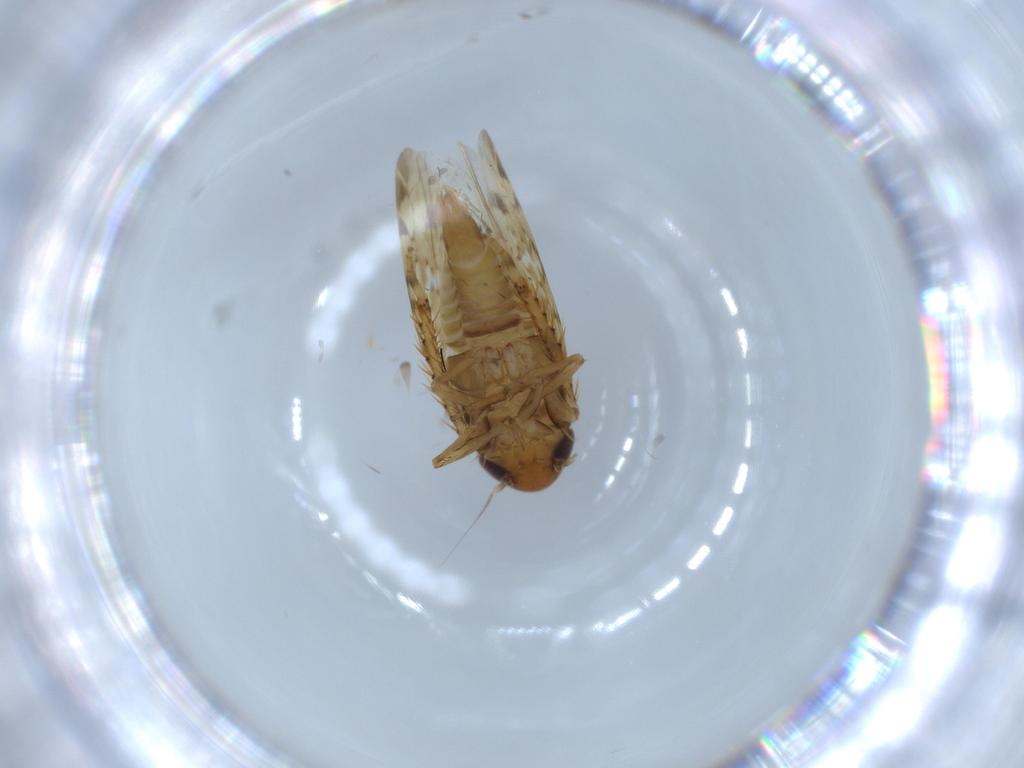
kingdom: Animalia
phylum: Arthropoda
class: Insecta
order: Hemiptera
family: Cicadellidae
